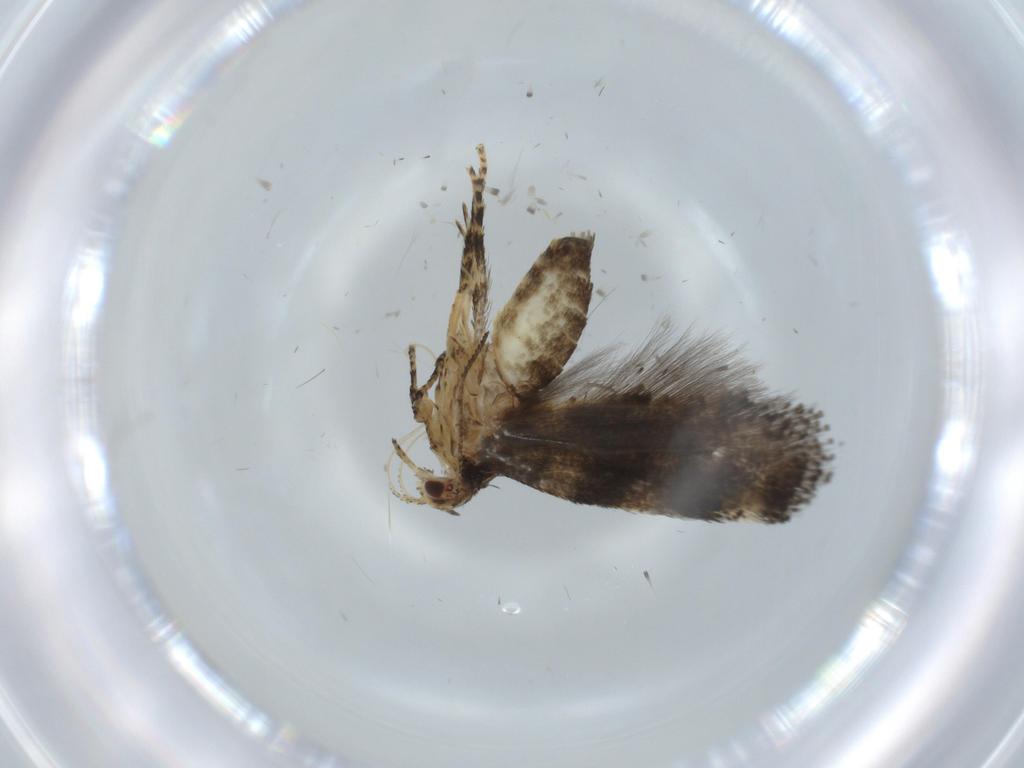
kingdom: Animalia
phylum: Arthropoda
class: Insecta
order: Lepidoptera
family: Gelechiidae
